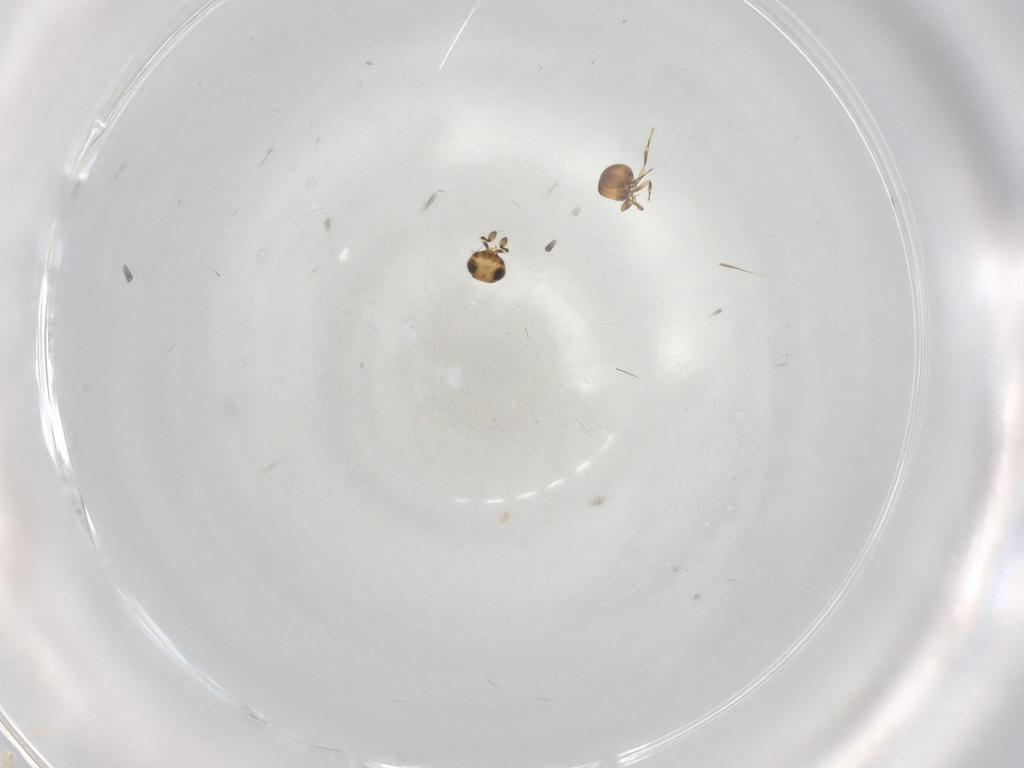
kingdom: Animalia
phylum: Arthropoda
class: Insecta
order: Hymenoptera
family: Scelionidae
